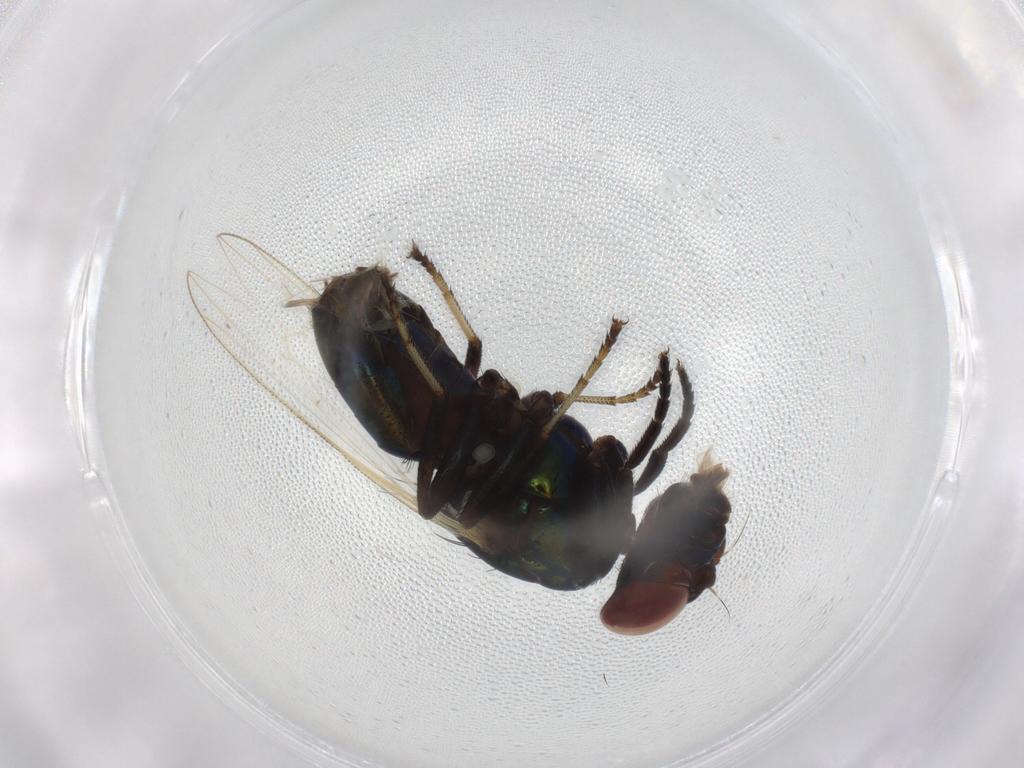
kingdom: Animalia
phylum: Arthropoda
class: Insecta
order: Diptera
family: Ulidiidae
